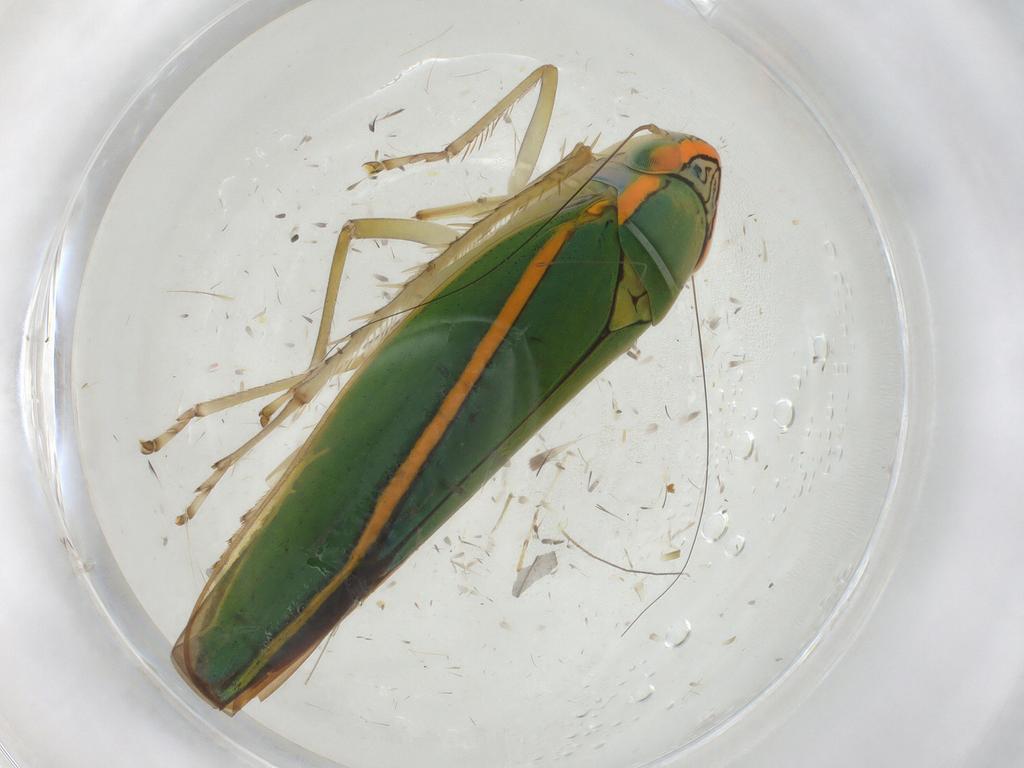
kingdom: Animalia
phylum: Arthropoda
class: Insecta
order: Hemiptera
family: Cicadellidae
